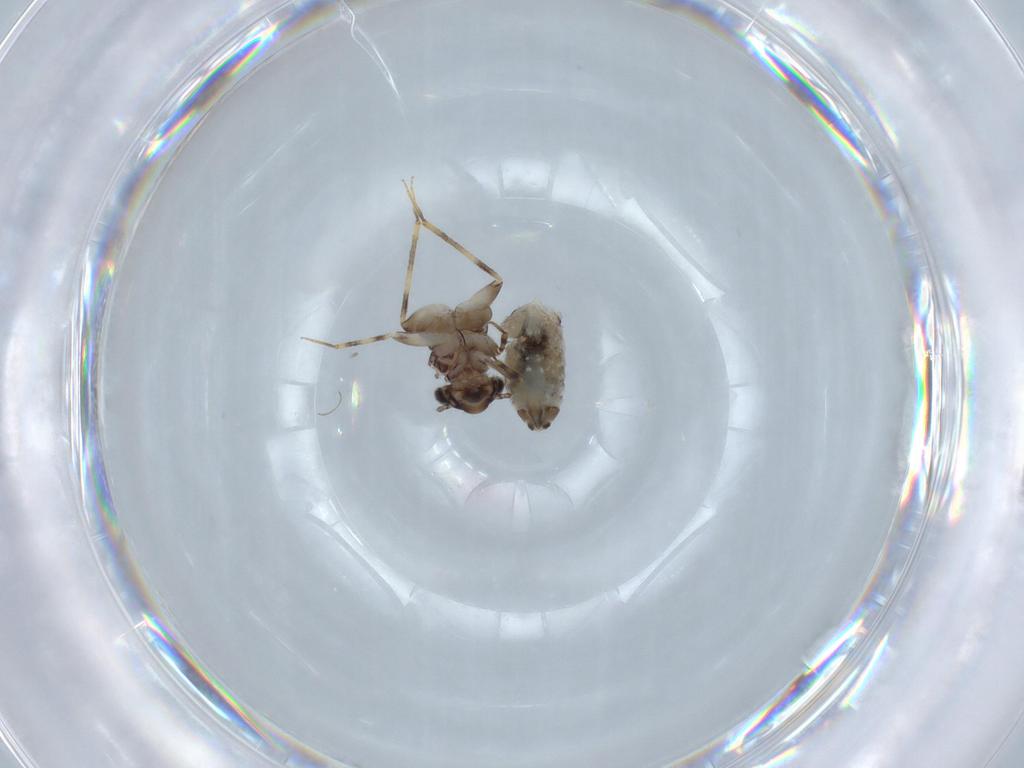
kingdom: Animalia
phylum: Arthropoda
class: Insecta
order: Psocodea
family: Lepidopsocidae
